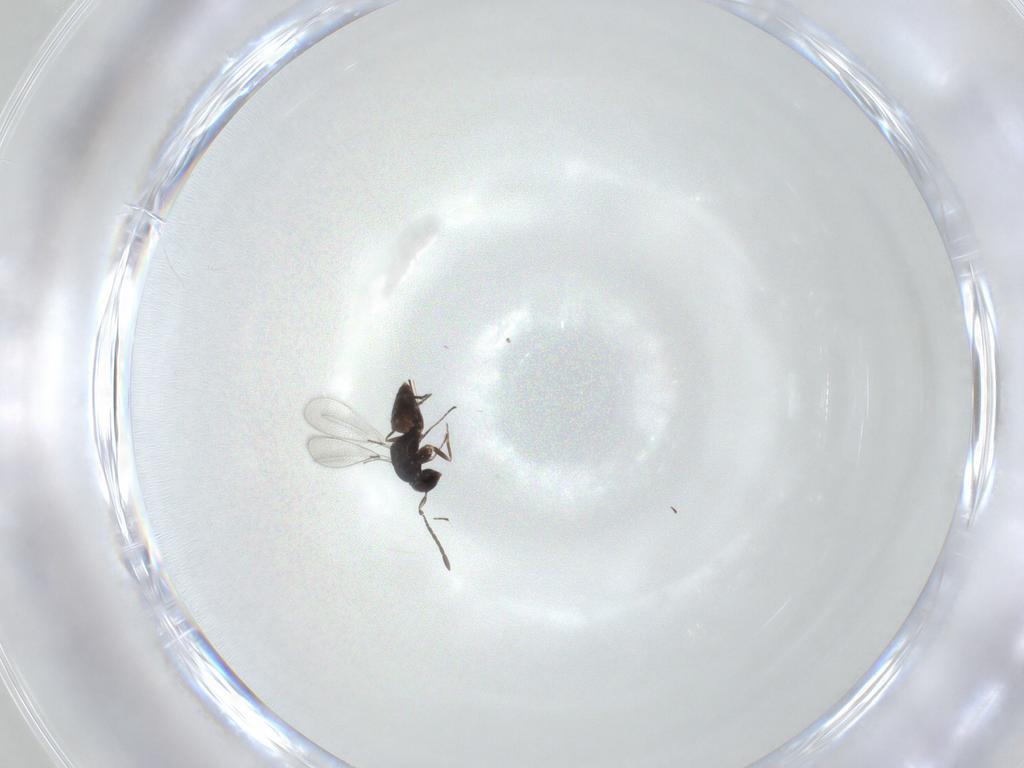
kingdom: Animalia
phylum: Arthropoda
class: Insecta
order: Hymenoptera
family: Mymaridae
